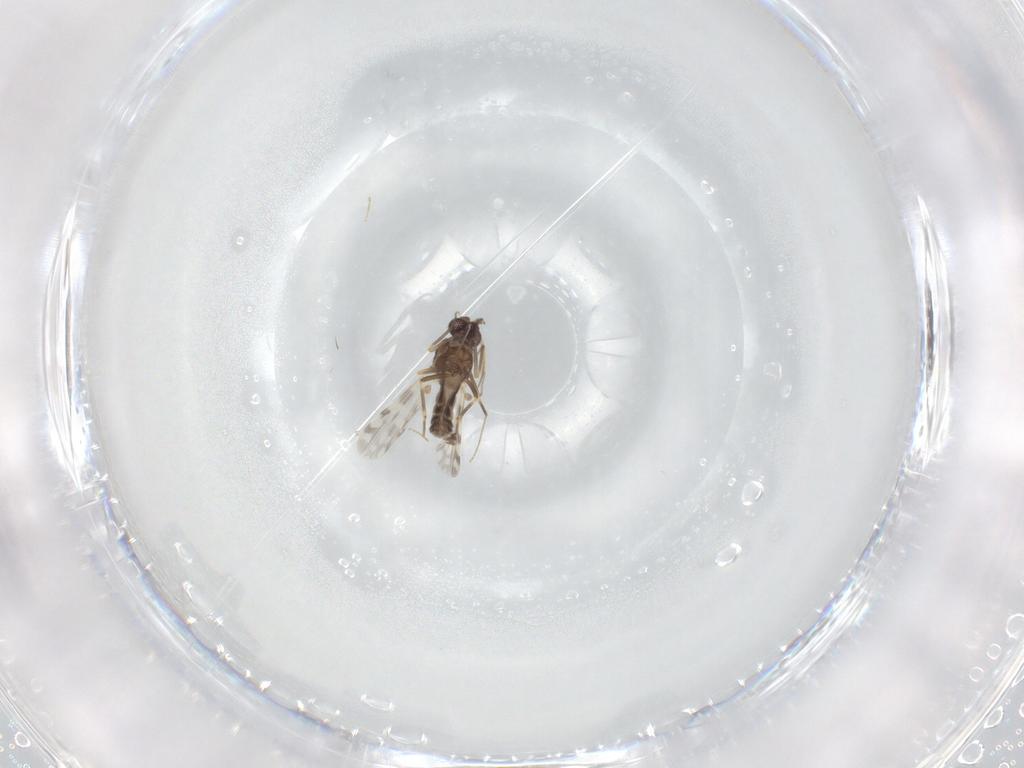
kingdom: Animalia
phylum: Arthropoda
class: Insecta
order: Diptera
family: Ceratopogonidae
